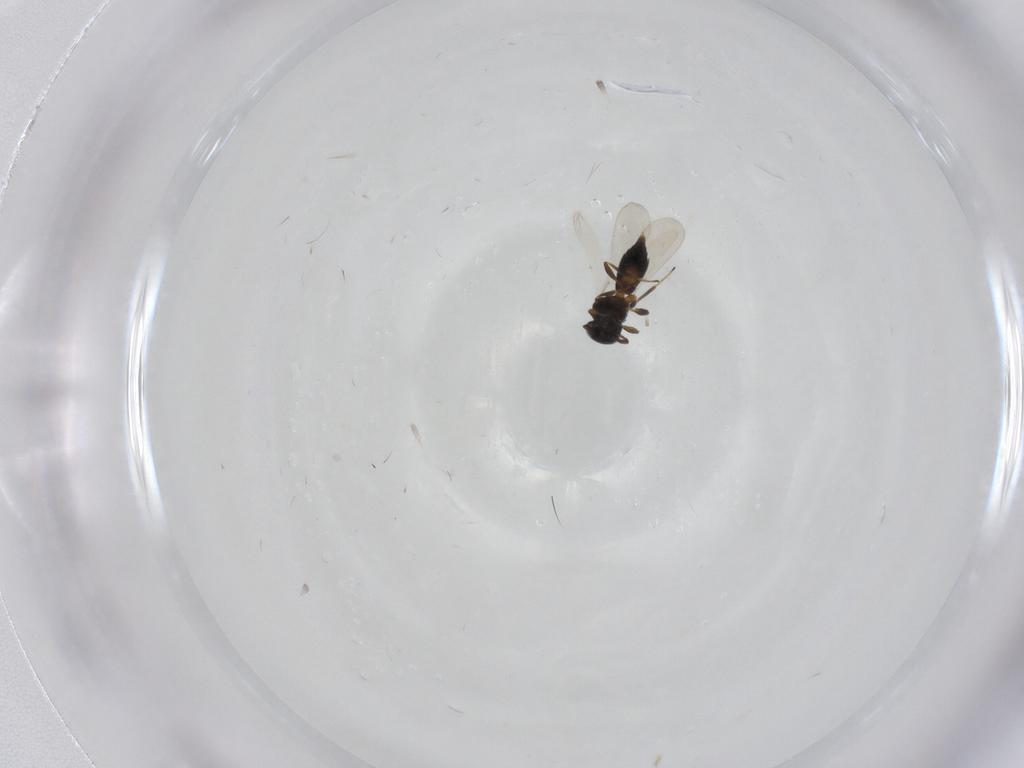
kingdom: Animalia
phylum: Arthropoda
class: Insecta
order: Hymenoptera
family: Platygastridae
